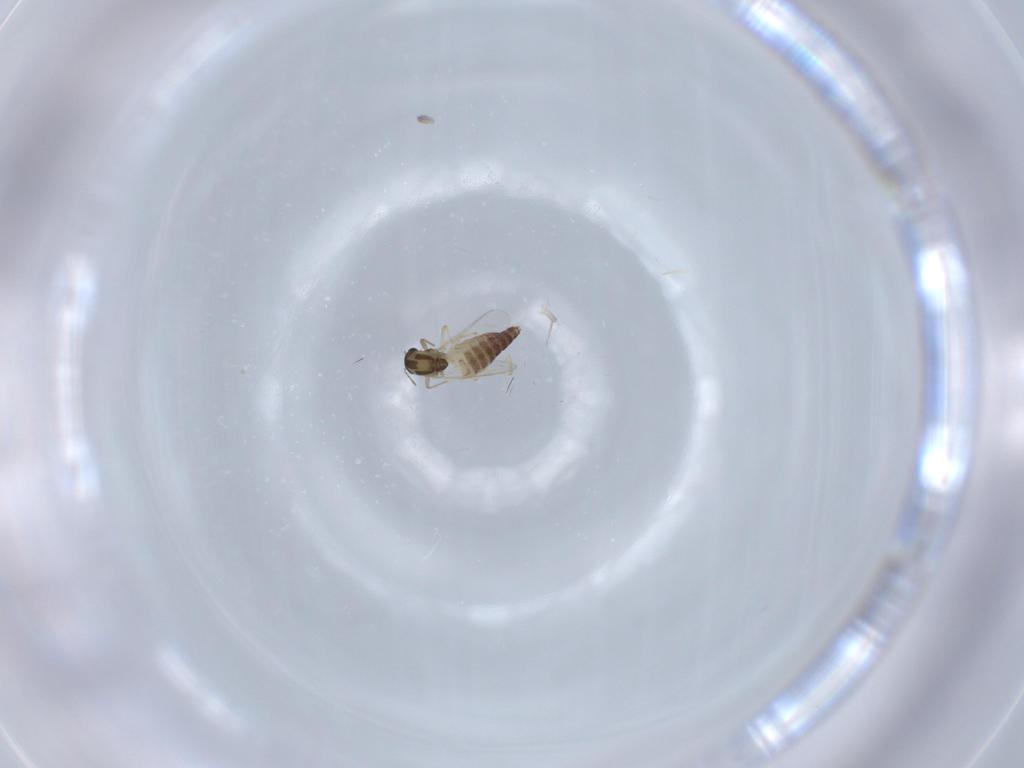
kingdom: Animalia
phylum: Arthropoda
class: Insecta
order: Diptera
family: Chironomidae
